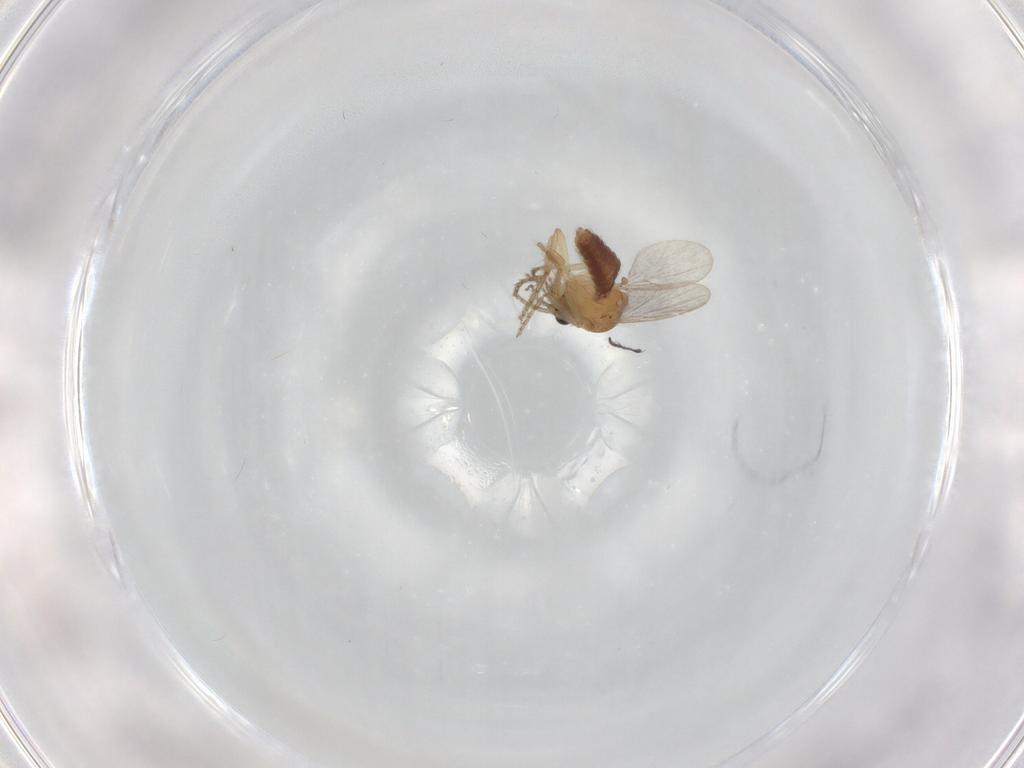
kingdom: Animalia
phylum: Arthropoda
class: Insecta
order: Diptera
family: Ceratopogonidae
